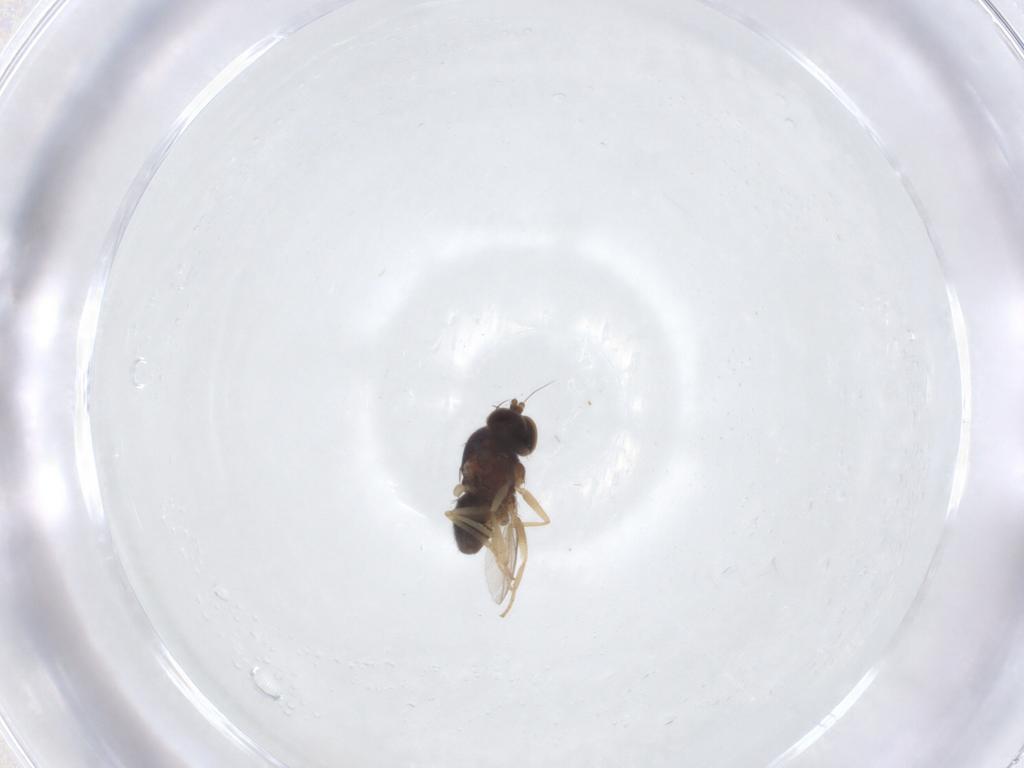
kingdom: Animalia
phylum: Arthropoda
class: Insecta
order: Diptera
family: Dolichopodidae
